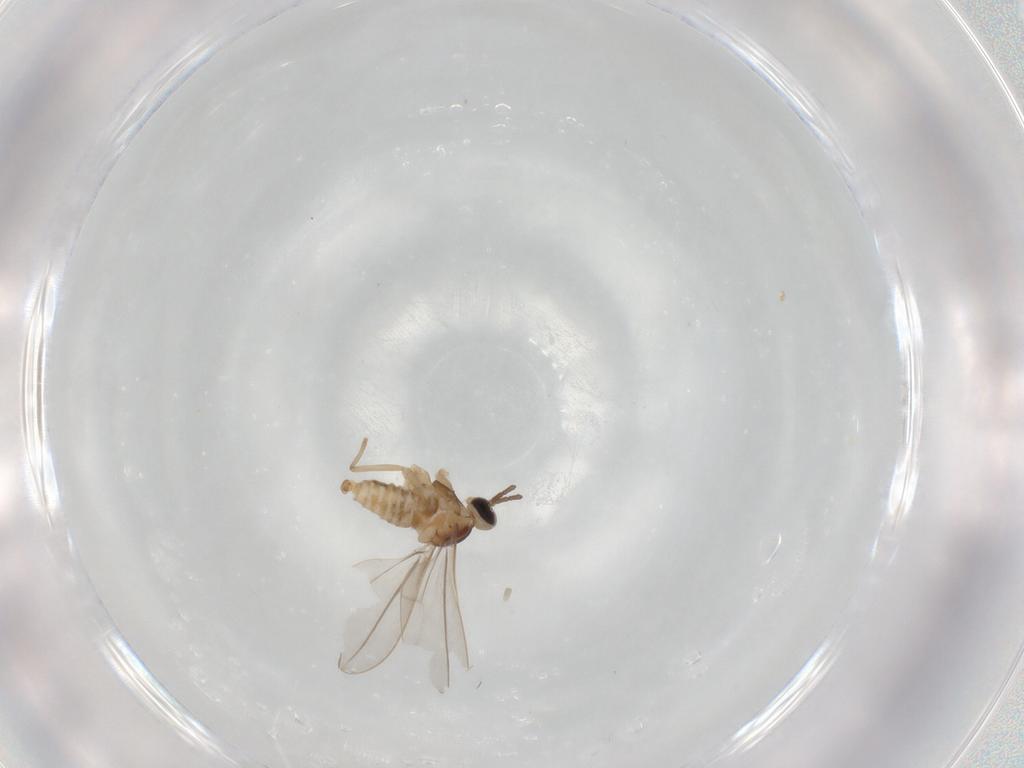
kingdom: Animalia
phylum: Arthropoda
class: Insecta
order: Diptera
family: Cecidomyiidae
